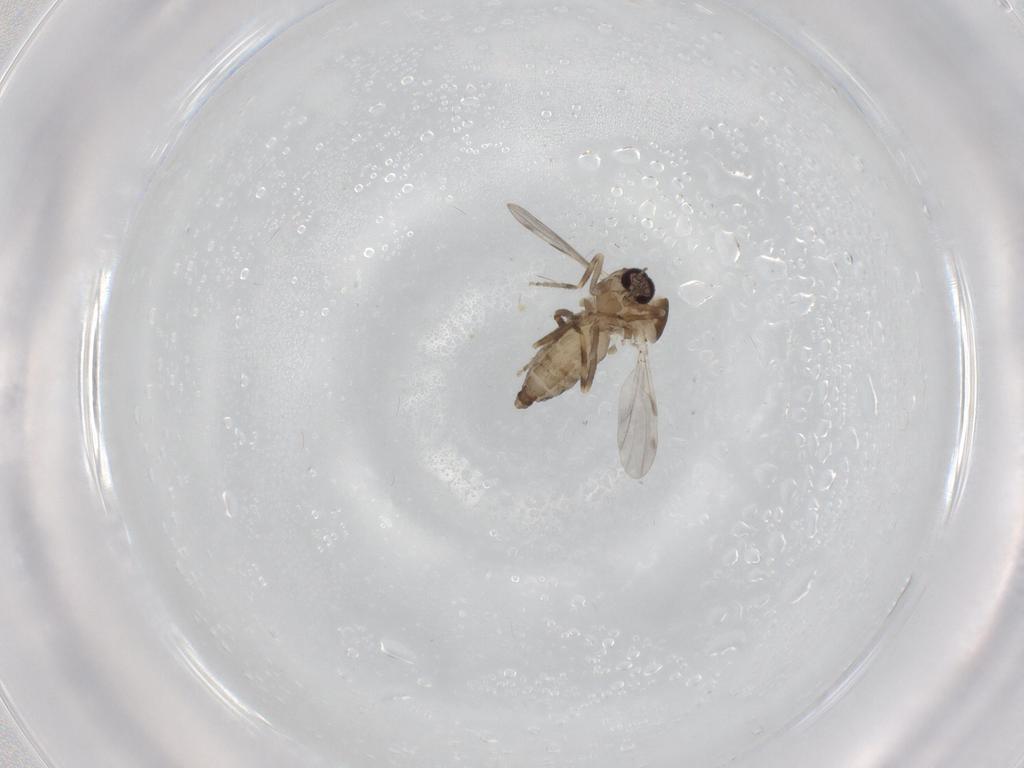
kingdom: Animalia
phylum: Arthropoda
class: Insecta
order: Diptera
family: Ceratopogonidae
